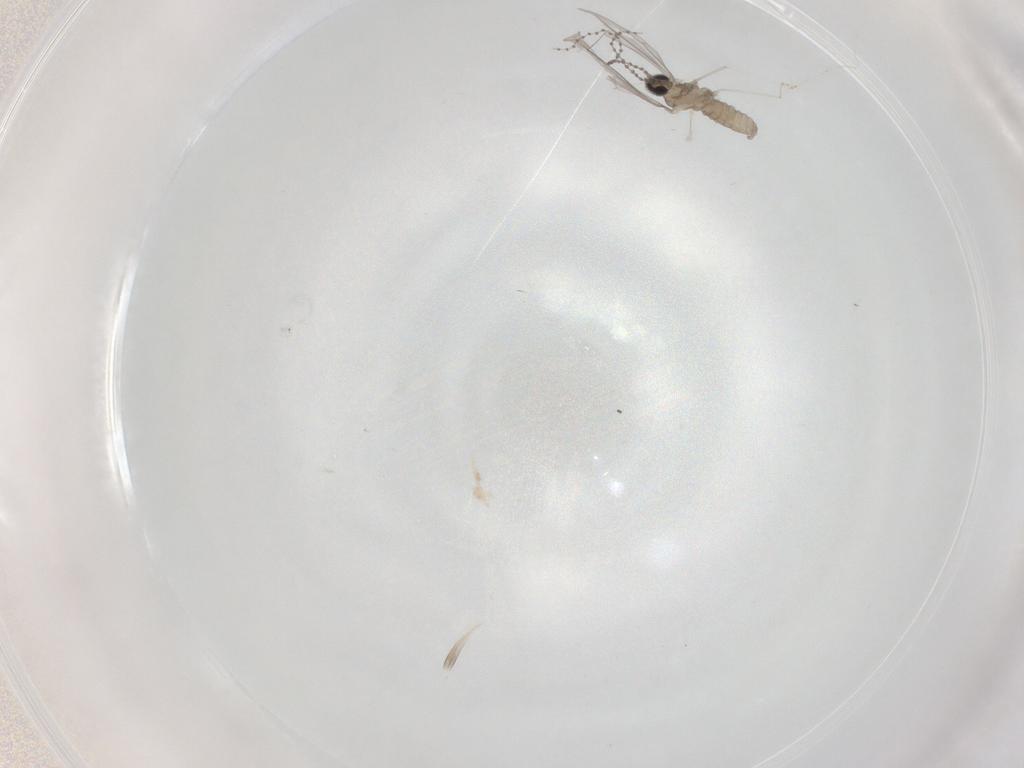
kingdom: Animalia
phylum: Arthropoda
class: Insecta
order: Diptera
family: Cecidomyiidae
